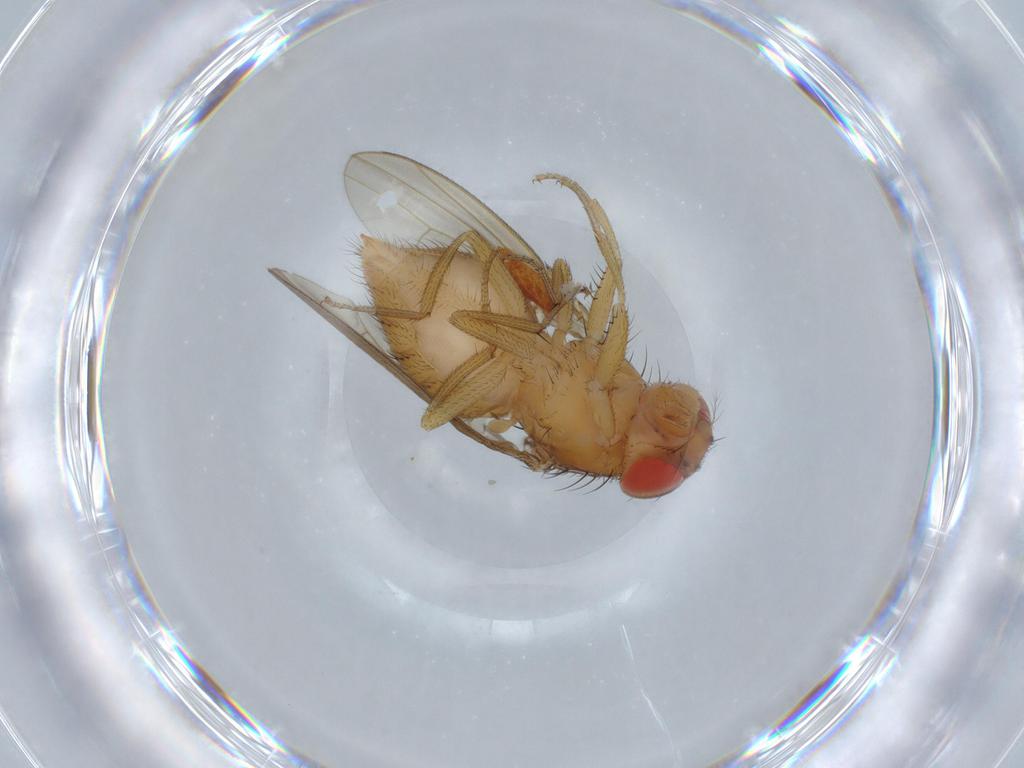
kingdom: Animalia
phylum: Arthropoda
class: Insecta
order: Diptera
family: Drosophilidae
